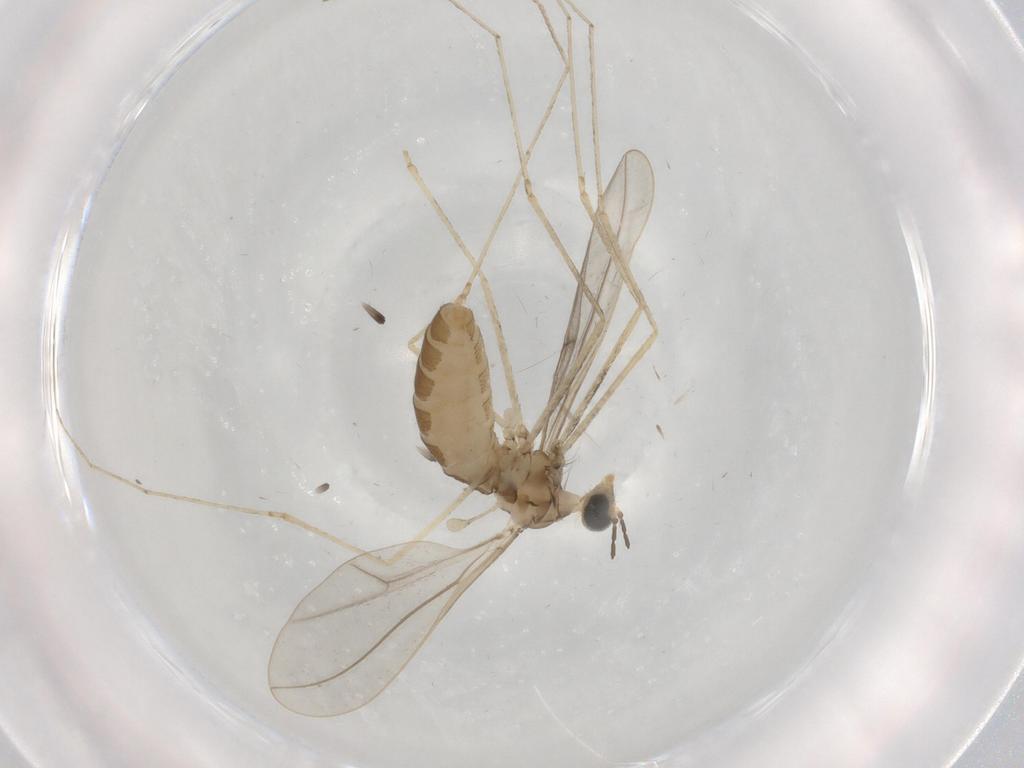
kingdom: Animalia
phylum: Arthropoda
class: Insecta
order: Diptera
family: Cecidomyiidae
